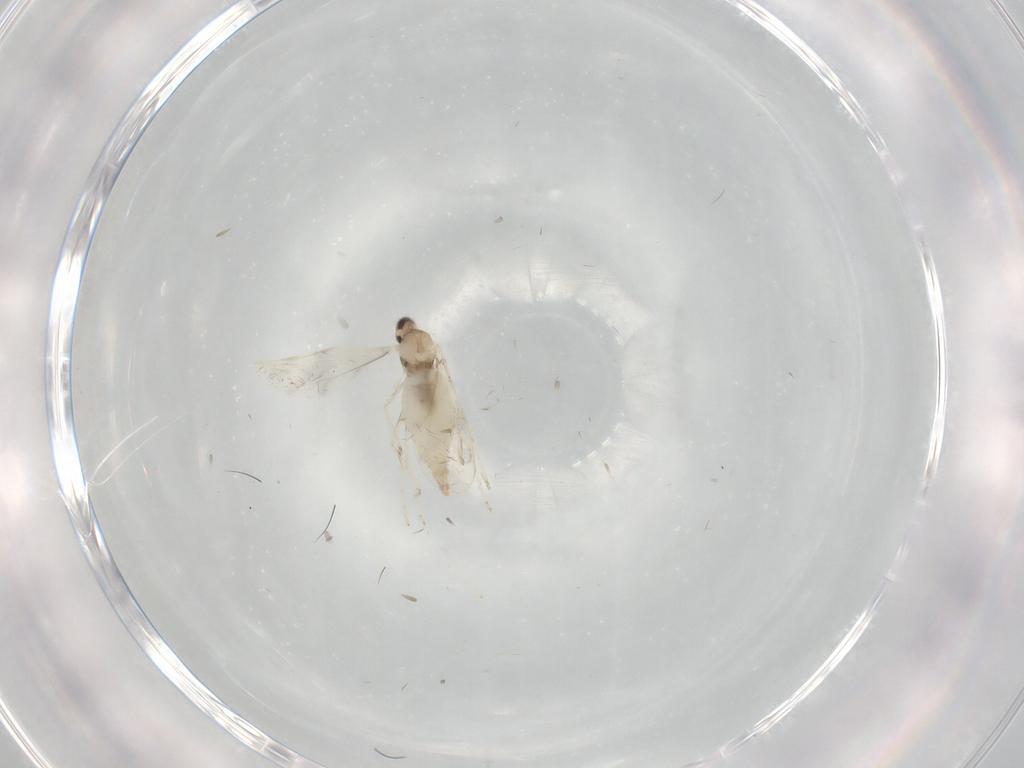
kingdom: Animalia
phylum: Arthropoda
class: Insecta
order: Diptera
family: Cecidomyiidae
